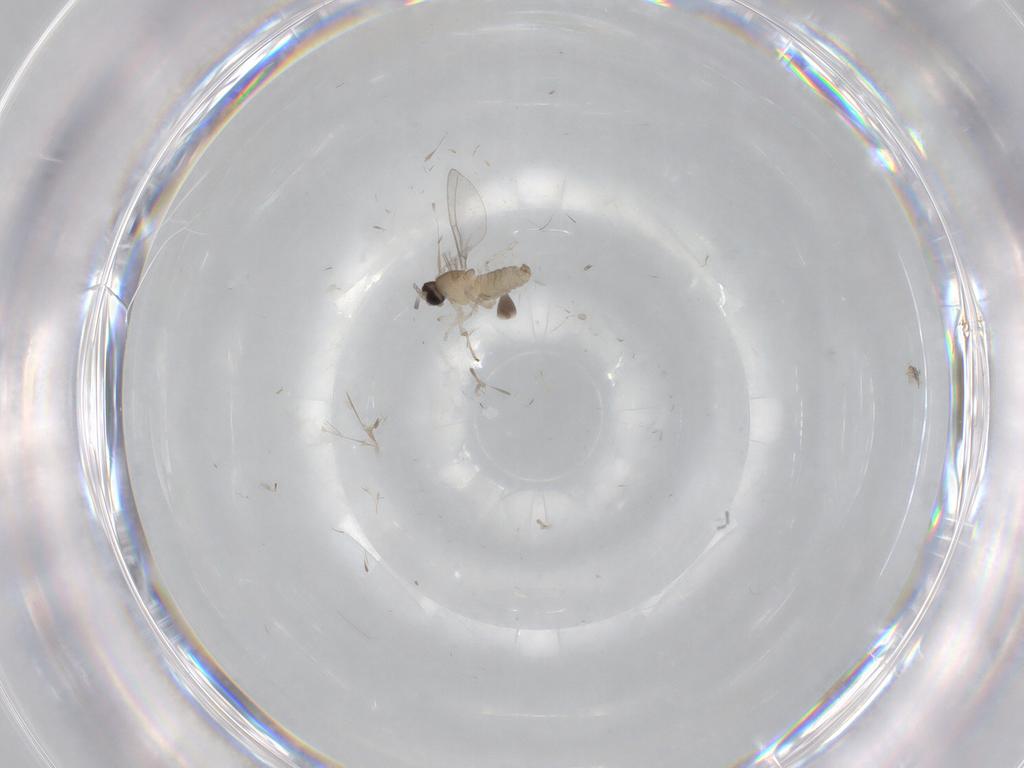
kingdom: Animalia
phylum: Arthropoda
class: Insecta
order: Diptera
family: Cecidomyiidae
